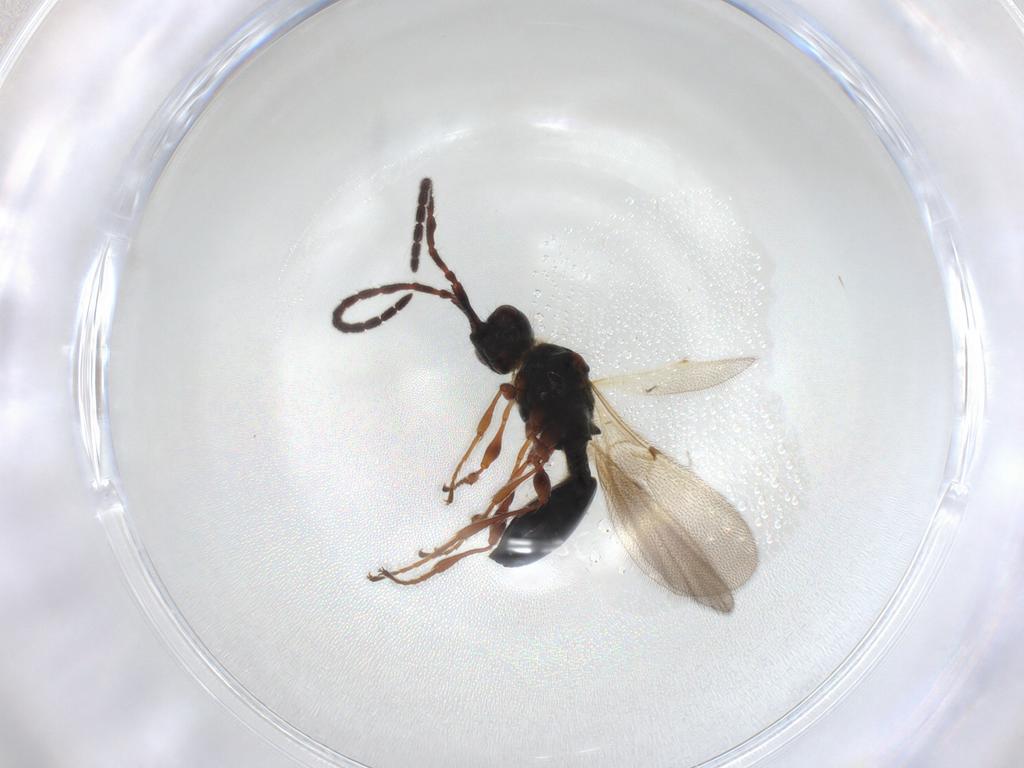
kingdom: Animalia
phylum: Arthropoda
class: Insecta
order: Hymenoptera
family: Diapriidae
